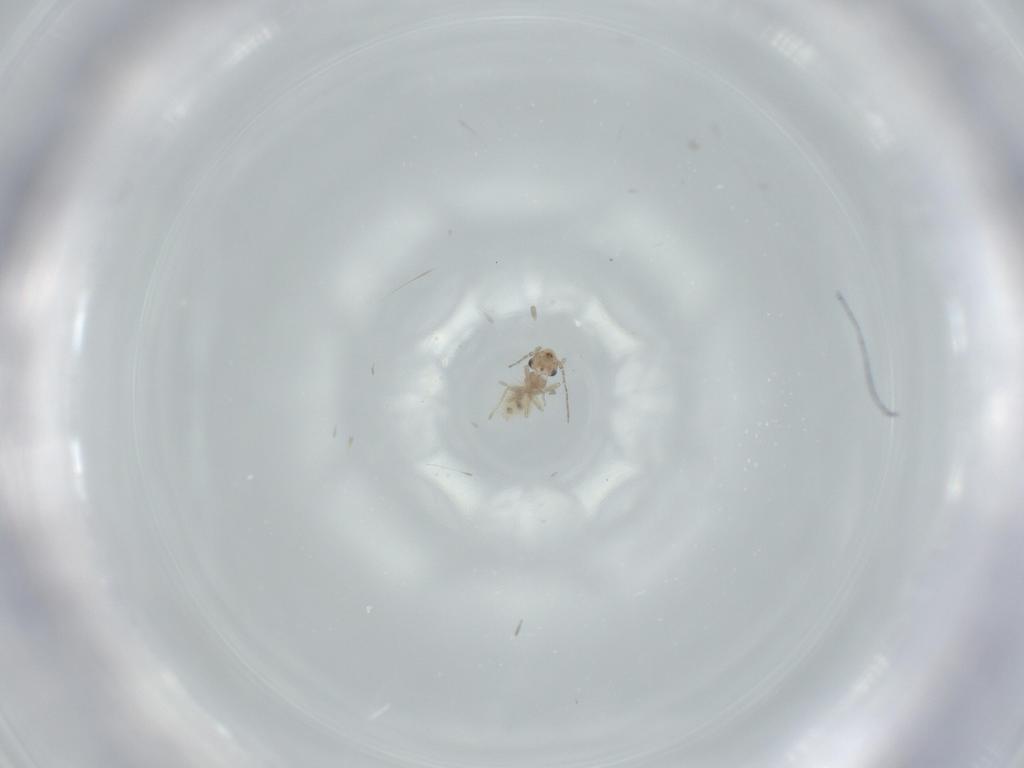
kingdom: Animalia
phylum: Arthropoda
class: Insecta
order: Psocodea
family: Lepidopsocidae
